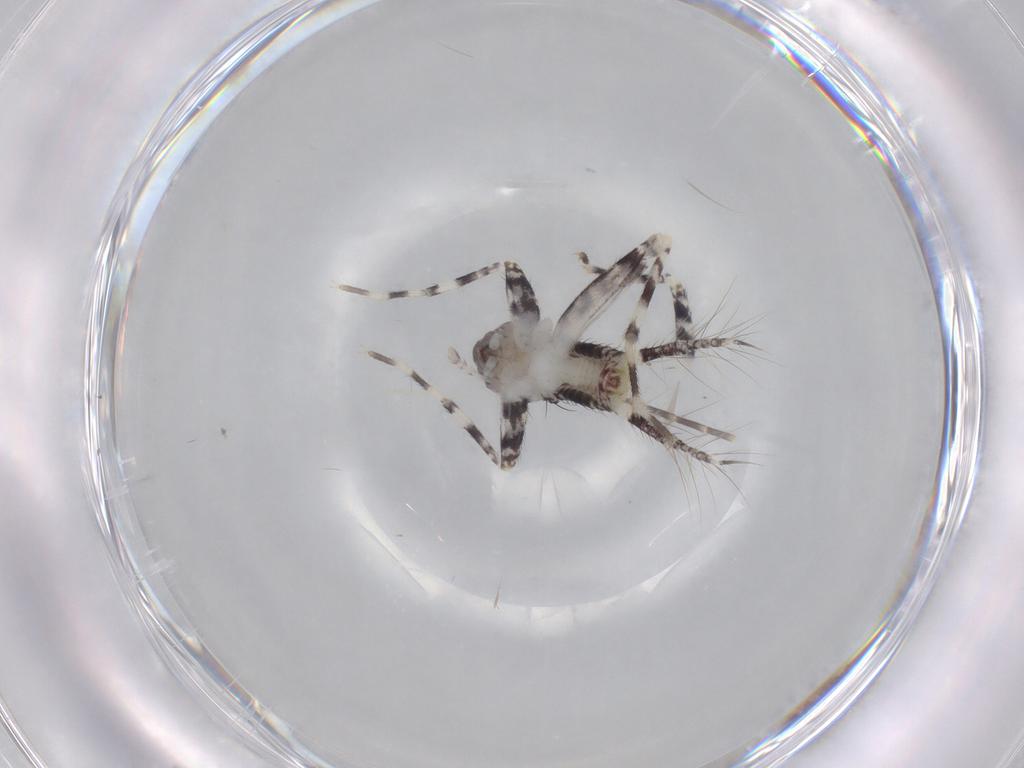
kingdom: Animalia
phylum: Arthropoda
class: Insecta
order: Orthoptera
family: Gryllidae
